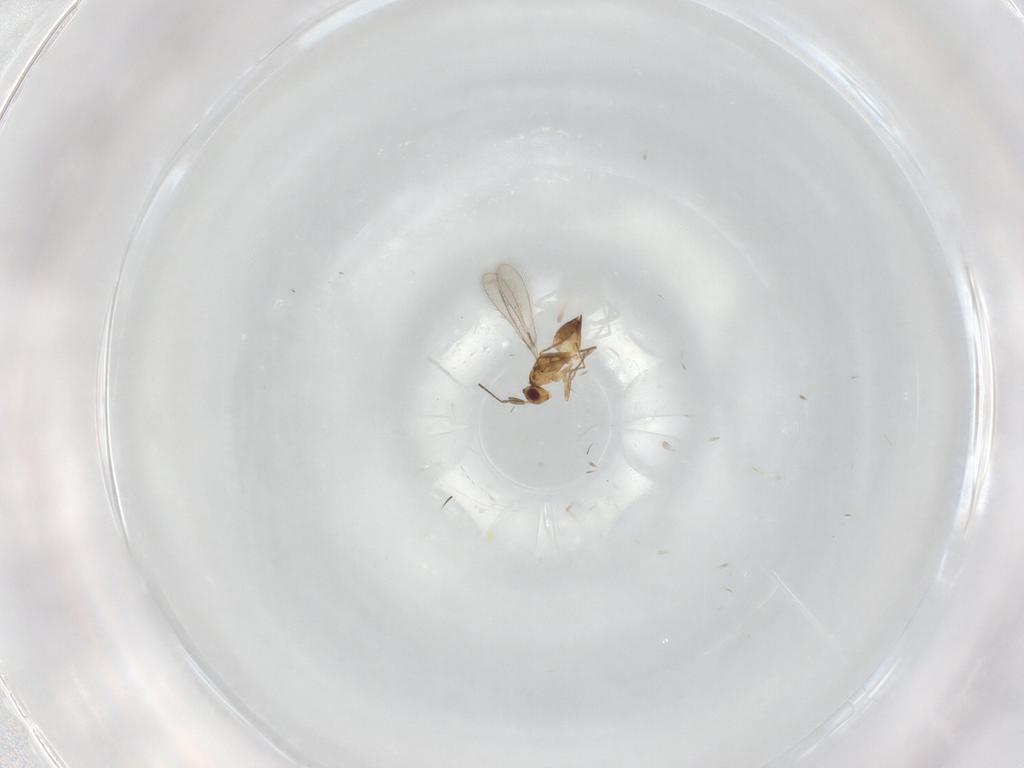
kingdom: Animalia
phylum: Arthropoda
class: Insecta
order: Hymenoptera
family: Mymaridae
